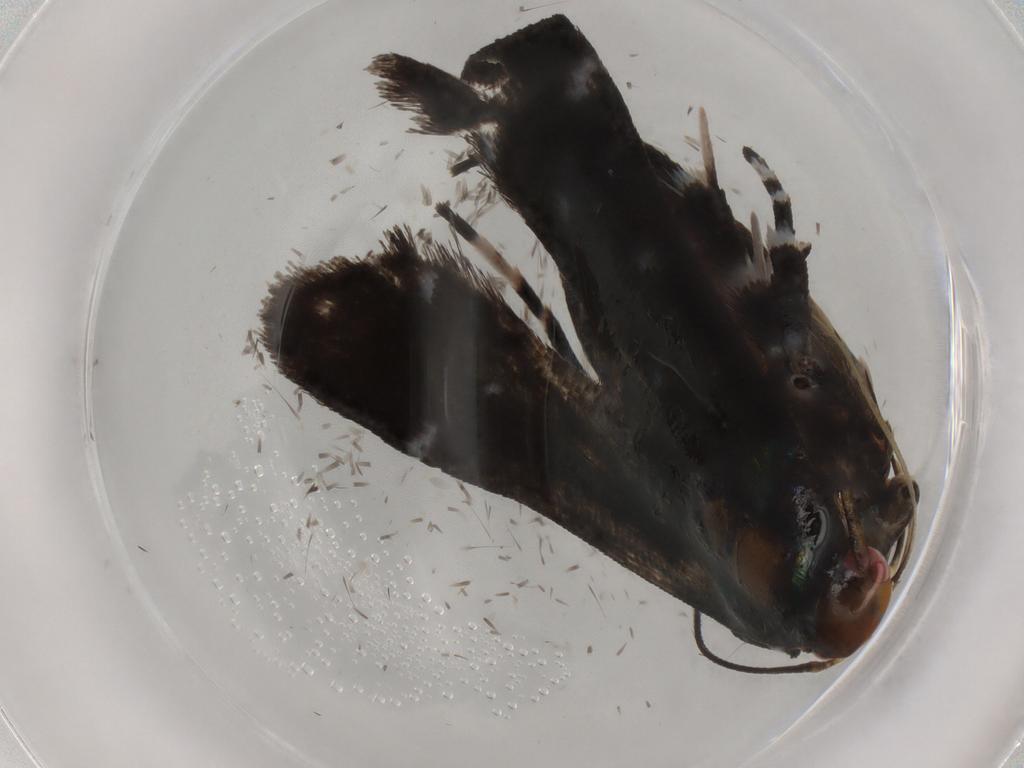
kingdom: Animalia
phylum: Arthropoda
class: Insecta
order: Lepidoptera
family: Gelechiidae
